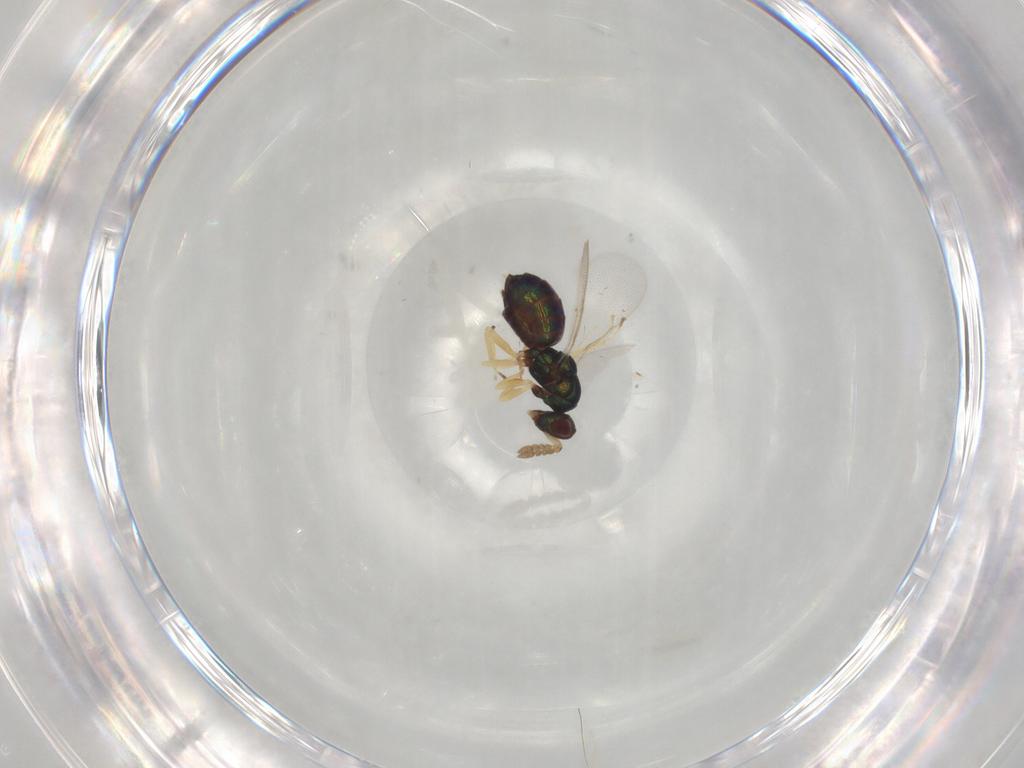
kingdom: Animalia
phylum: Arthropoda
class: Insecta
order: Hymenoptera
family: Eulophidae
